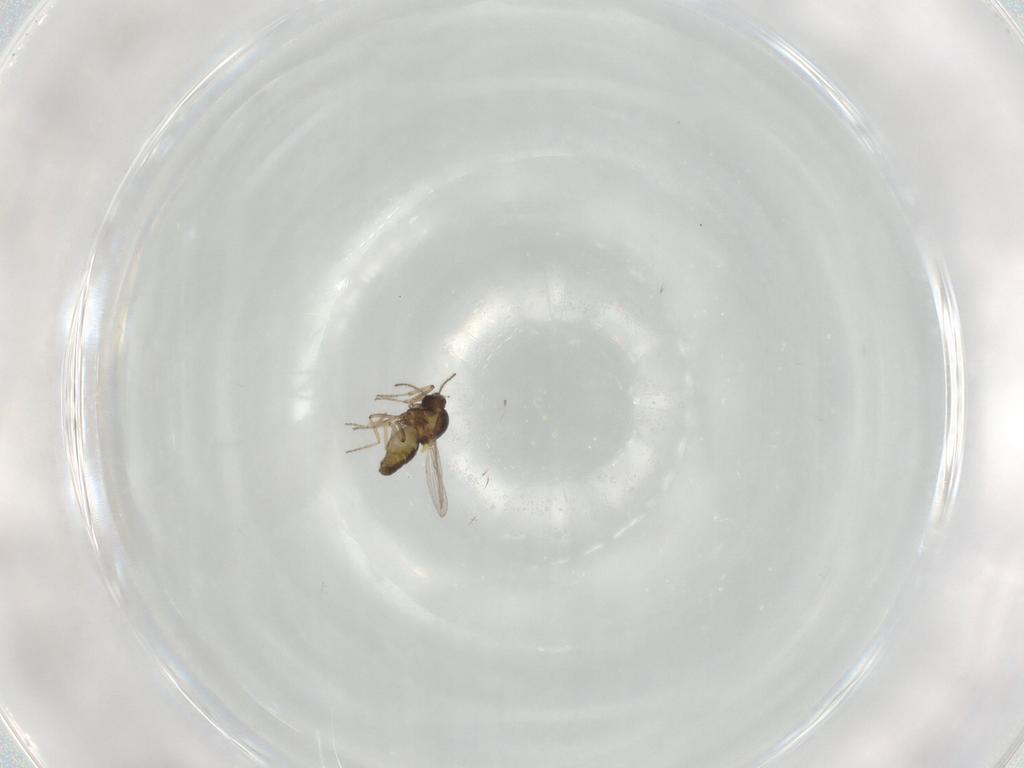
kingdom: Animalia
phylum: Arthropoda
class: Insecta
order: Diptera
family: Ceratopogonidae
